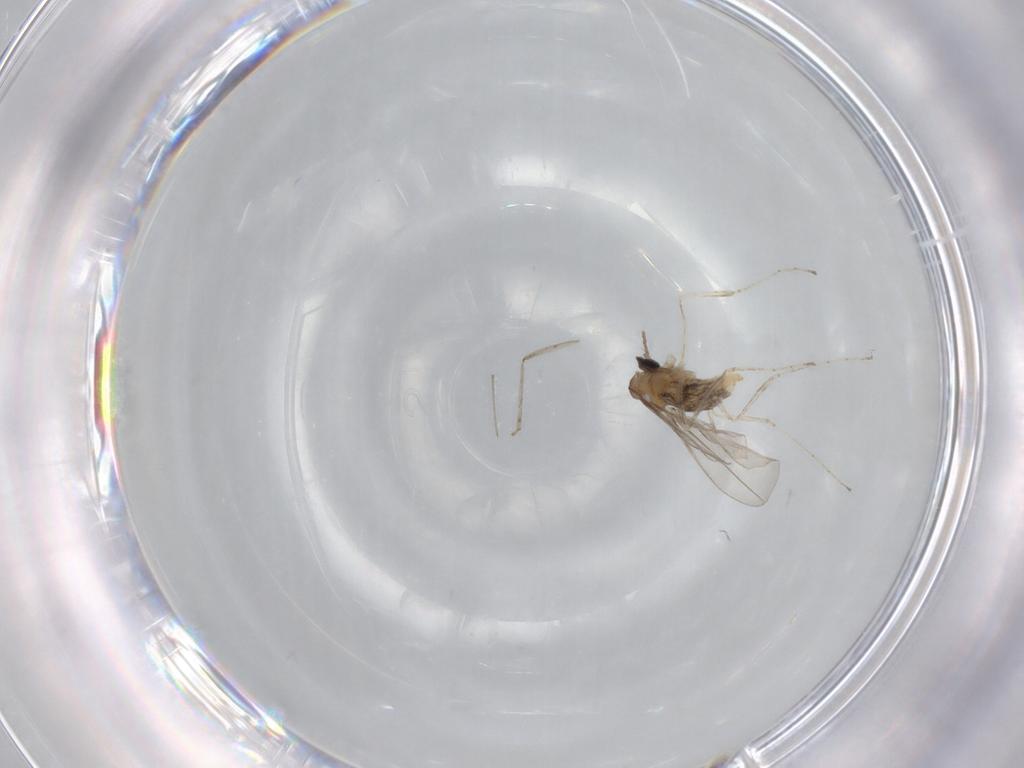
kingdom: Animalia
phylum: Arthropoda
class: Insecta
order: Diptera
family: Cecidomyiidae
